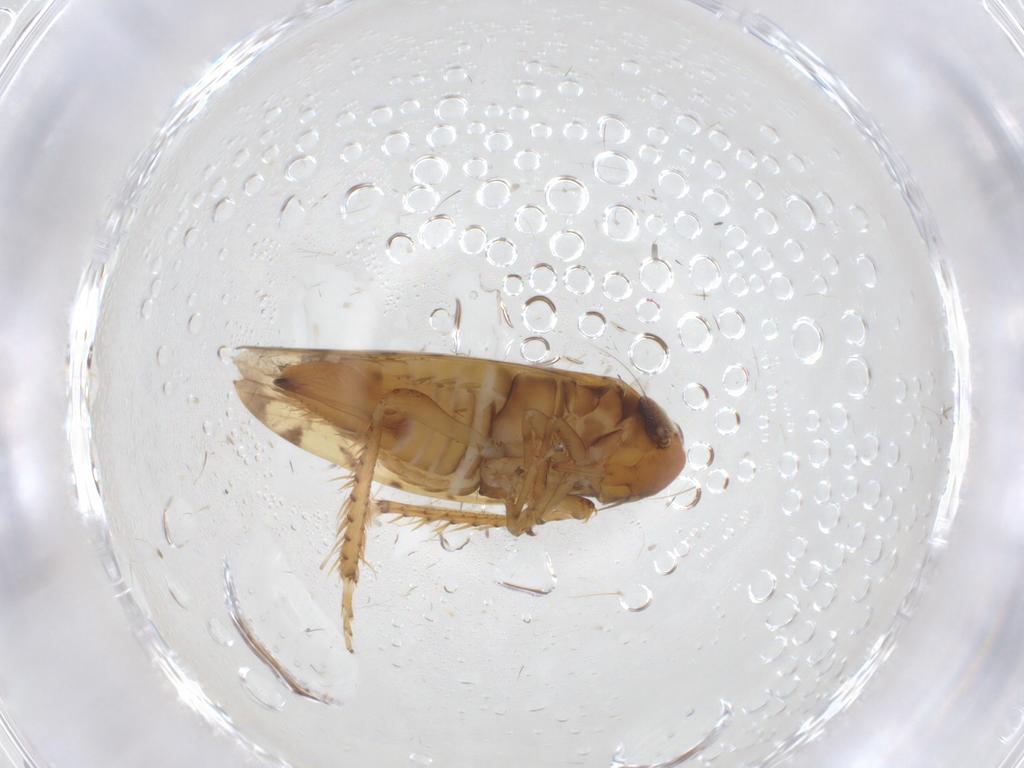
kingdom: Animalia
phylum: Arthropoda
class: Insecta
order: Hemiptera
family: Cicadellidae
